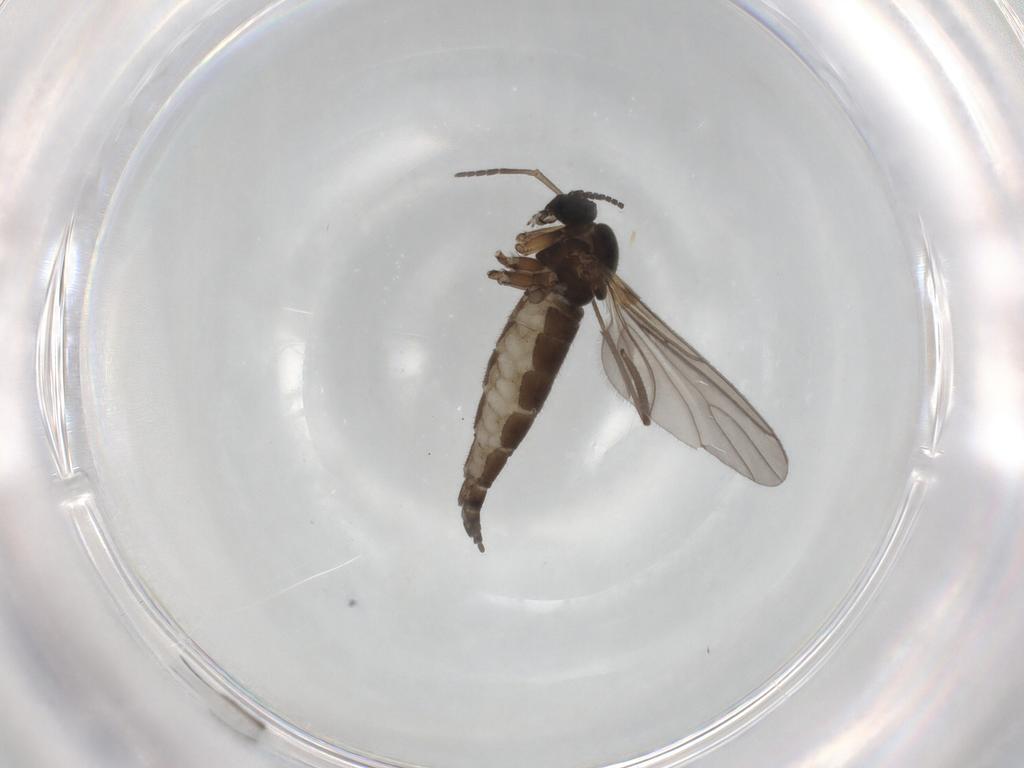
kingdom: Animalia
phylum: Arthropoda
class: Insecta
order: Diptera
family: Sciaridae
